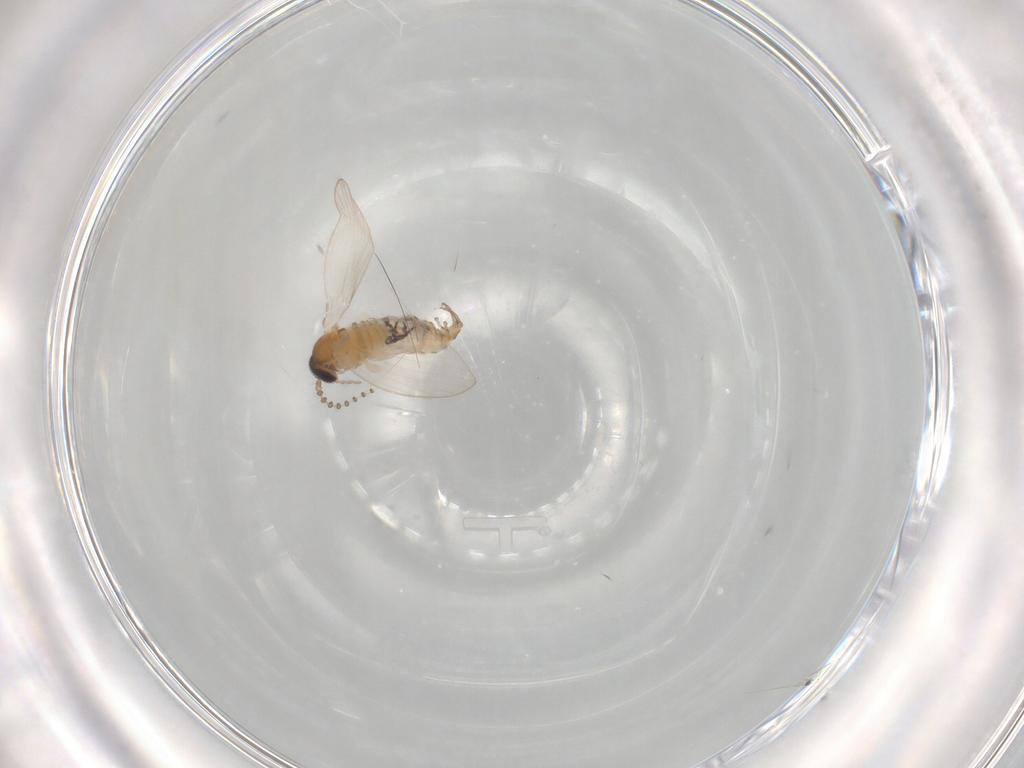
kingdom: Animalia
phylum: Arthropoda
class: Insecta
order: Diptera
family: Psychodidae
